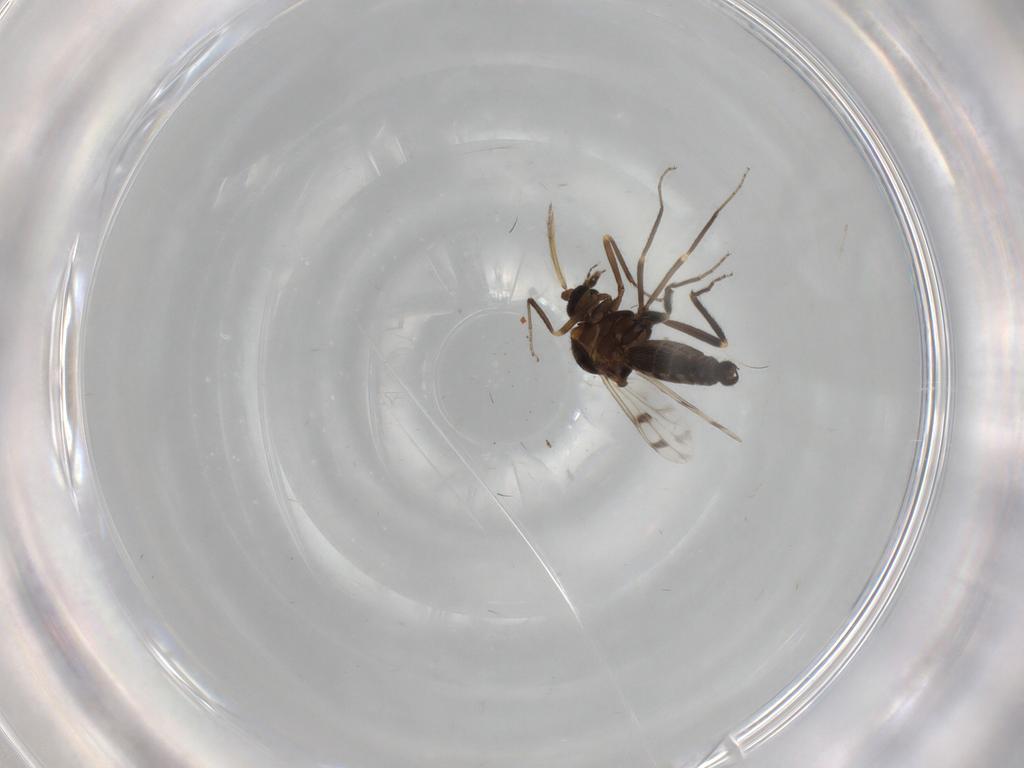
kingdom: Animalia
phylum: Arthropoda
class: Insecta
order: Diptera
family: Ceratopogonidae
